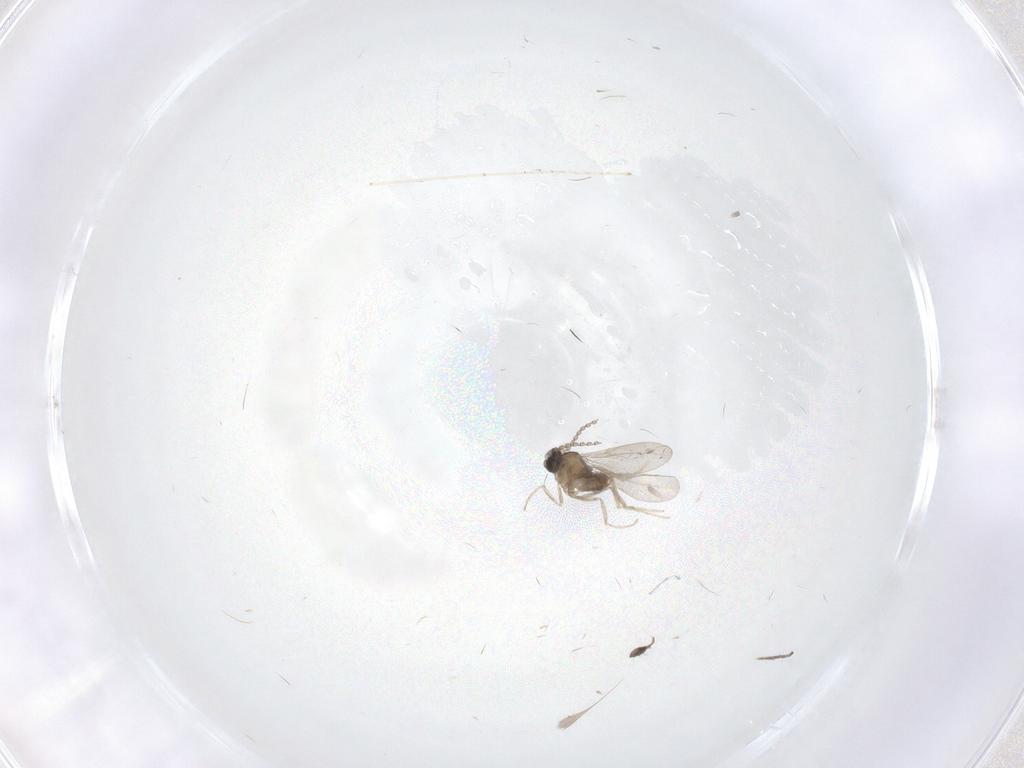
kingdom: Animalia
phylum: Arthropoda
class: Insecta
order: Diptera
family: Cecidomyiidae
